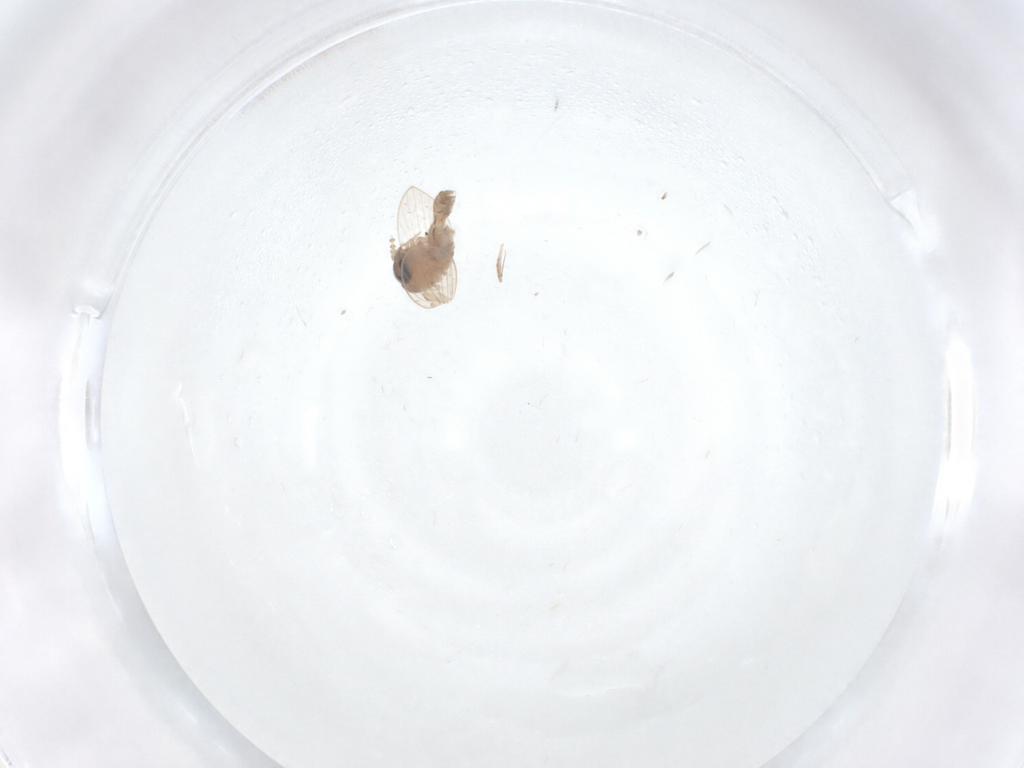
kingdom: Animalia
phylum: Arthropoda
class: Insecta
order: Diptera
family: Psychodidae
